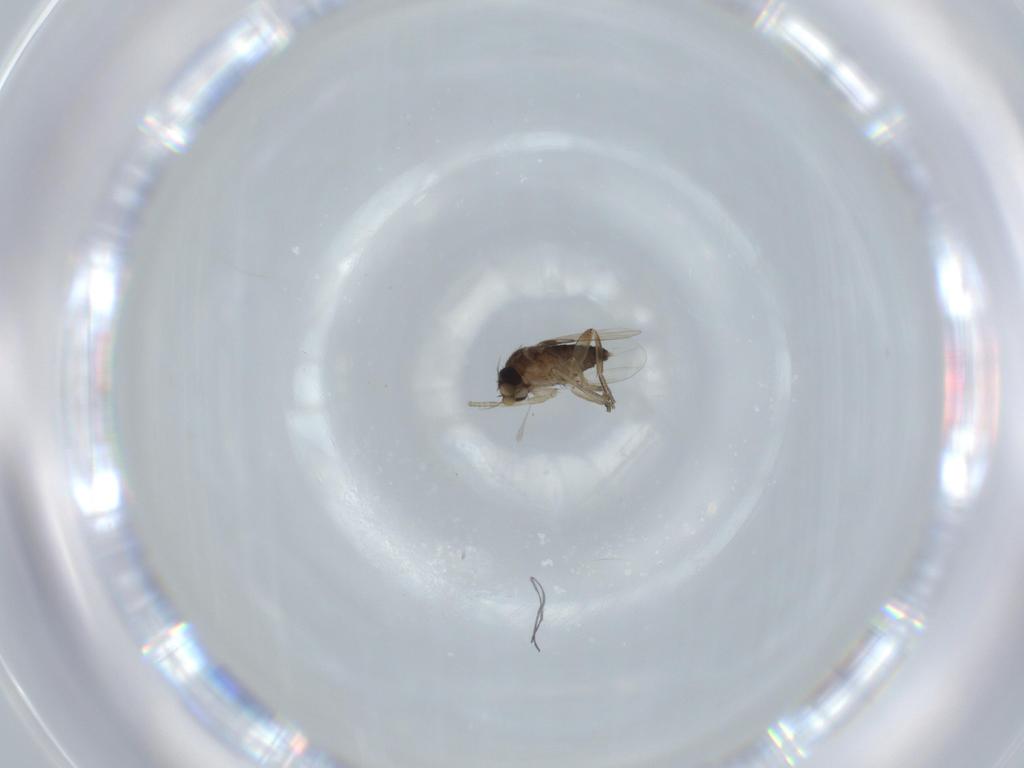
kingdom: Animalia
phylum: Arthropoda
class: Insecta
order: Diptera
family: Phoridae
